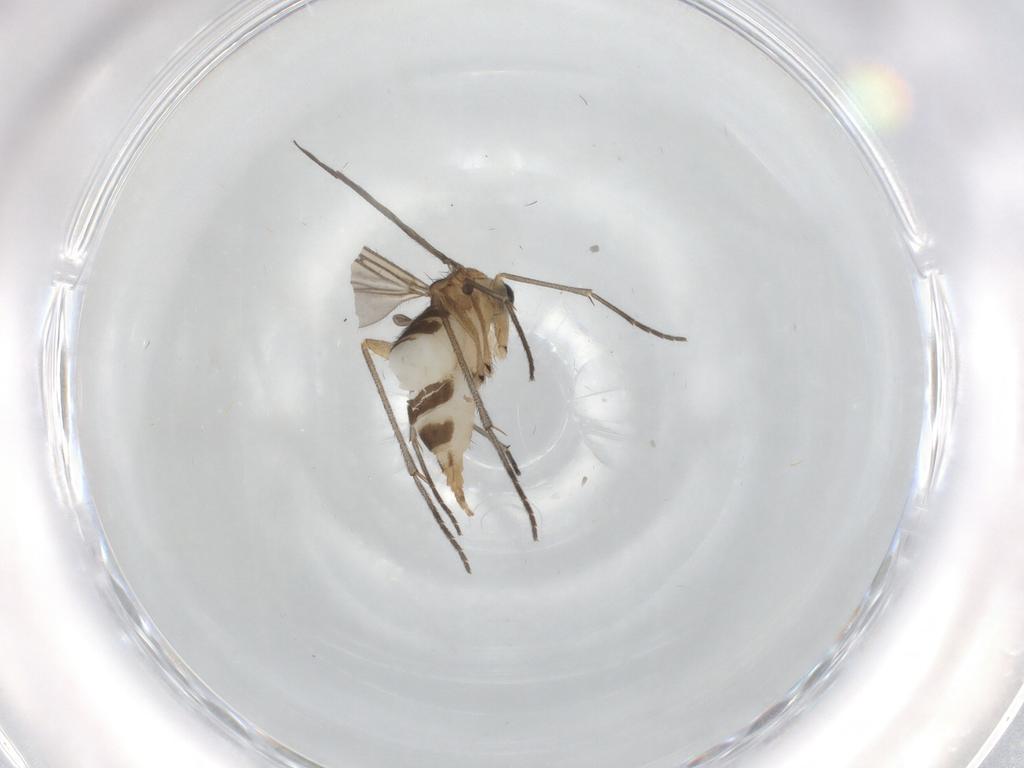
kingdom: Animalia
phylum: Arthropoda
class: Insecta
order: Diptera
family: Sciaridae
